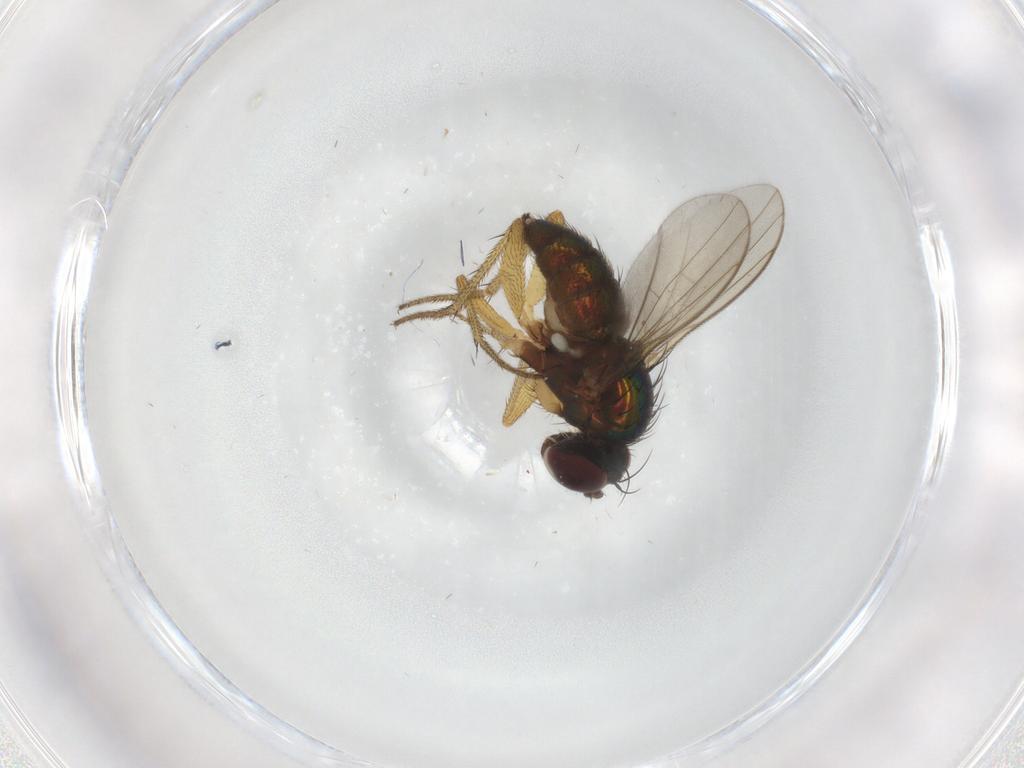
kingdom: Animalia
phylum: Arthropoda
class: Insecta
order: Diptera
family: Dolichopodidae
